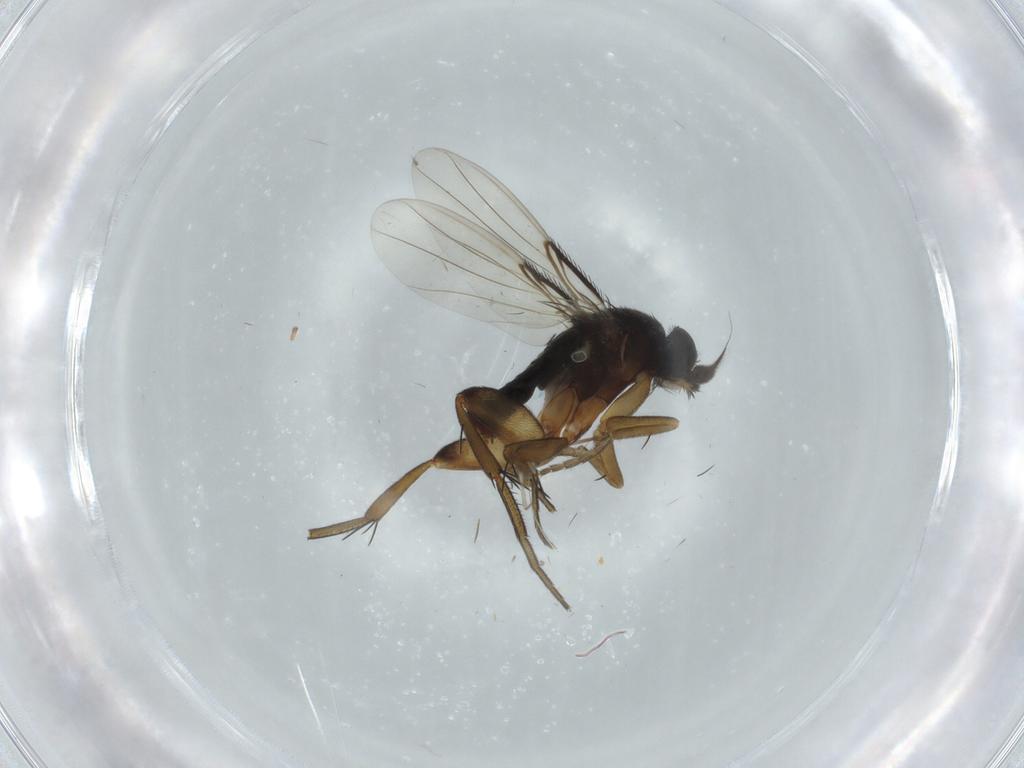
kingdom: Animalia
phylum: Arthropoda
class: Insecta
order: Diptera
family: Phoridae
